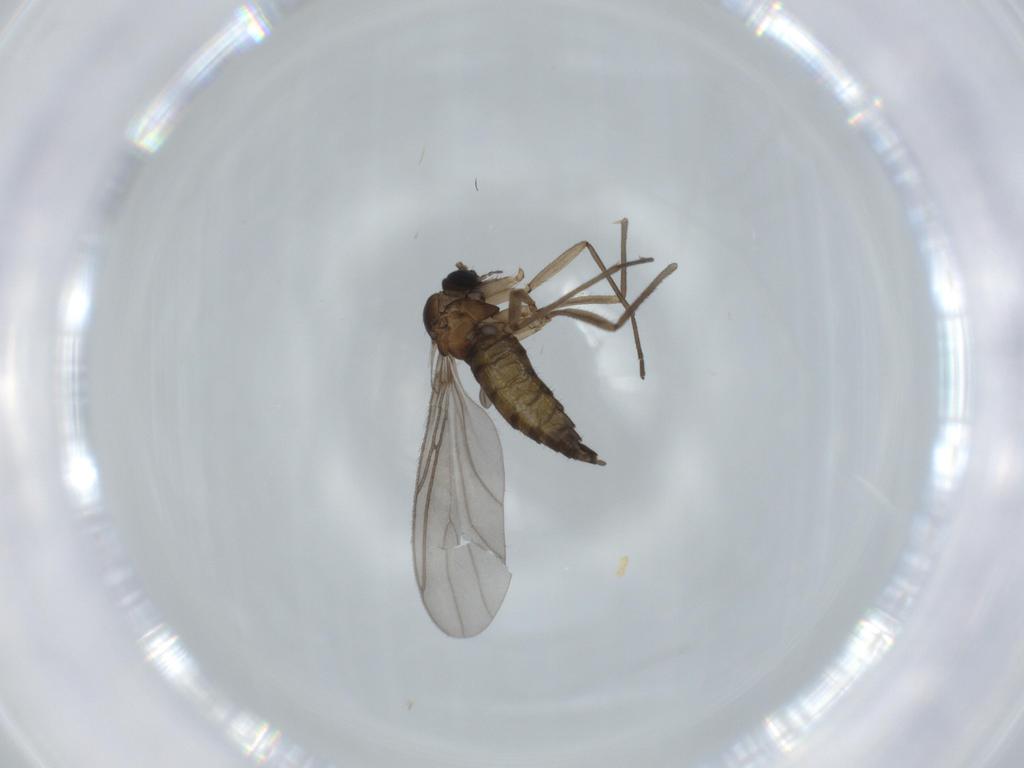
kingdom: Animalia
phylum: Arthropoda
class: Insecta
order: Diptera
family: Sciaridae
